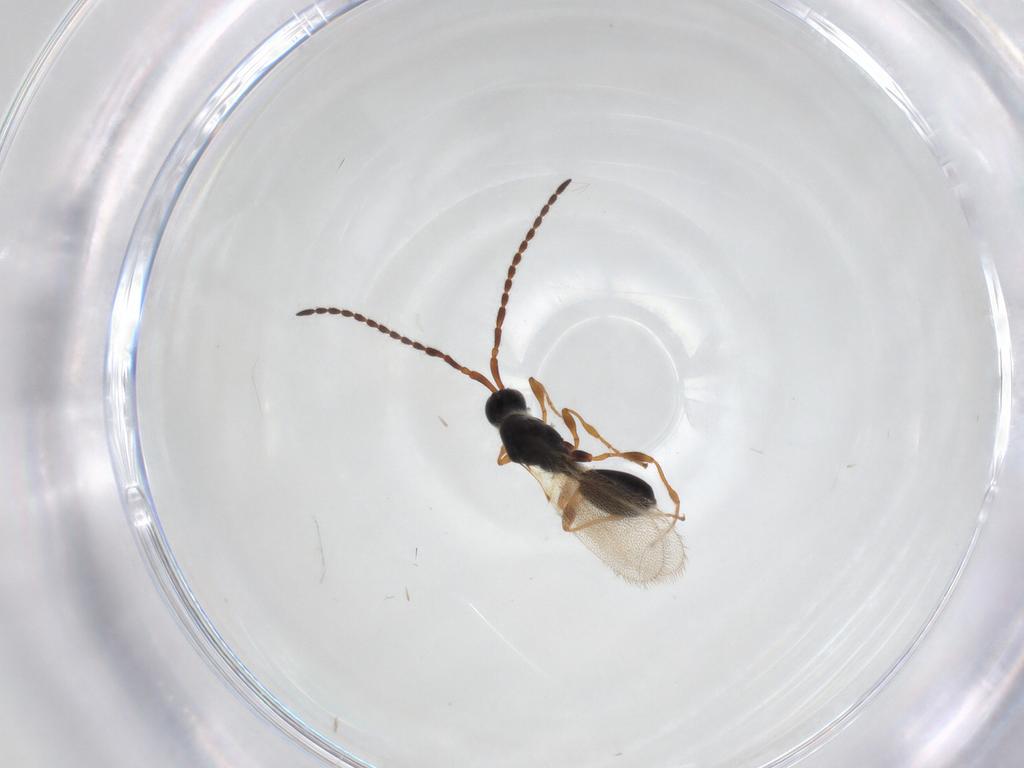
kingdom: Animalia
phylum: Arthropoda
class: Insecta
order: Hymenoptera
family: Diapriidae
